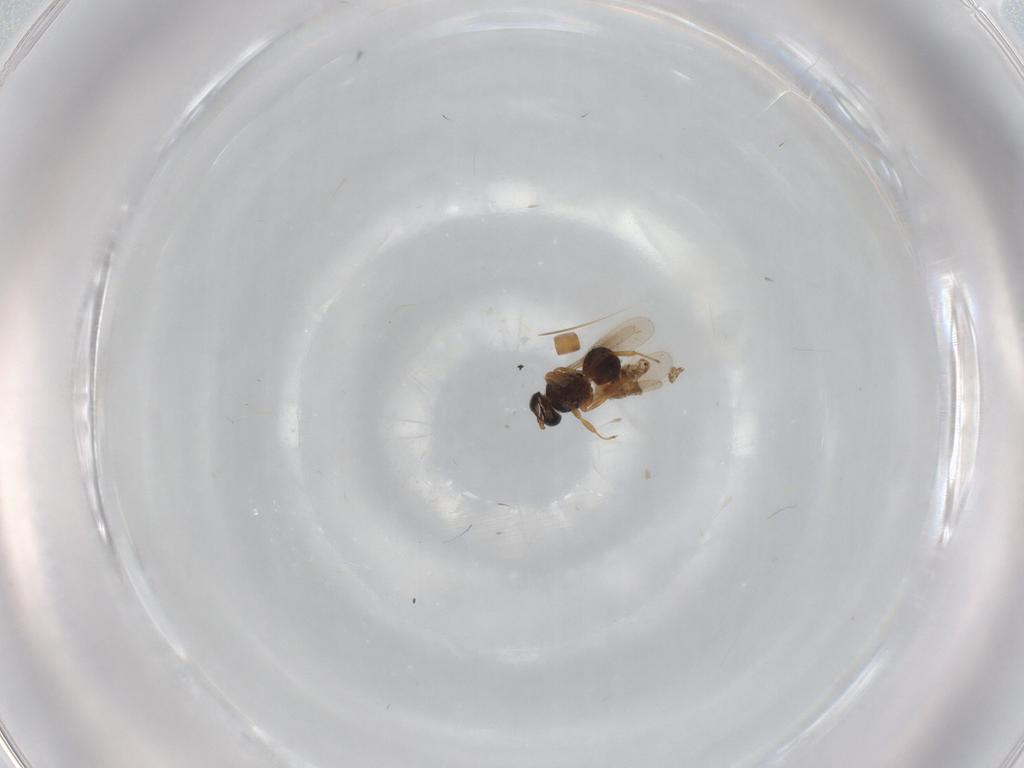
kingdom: Animalia
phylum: Arthropoda
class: Insecta
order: Hymenoptera
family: Scelionidae
